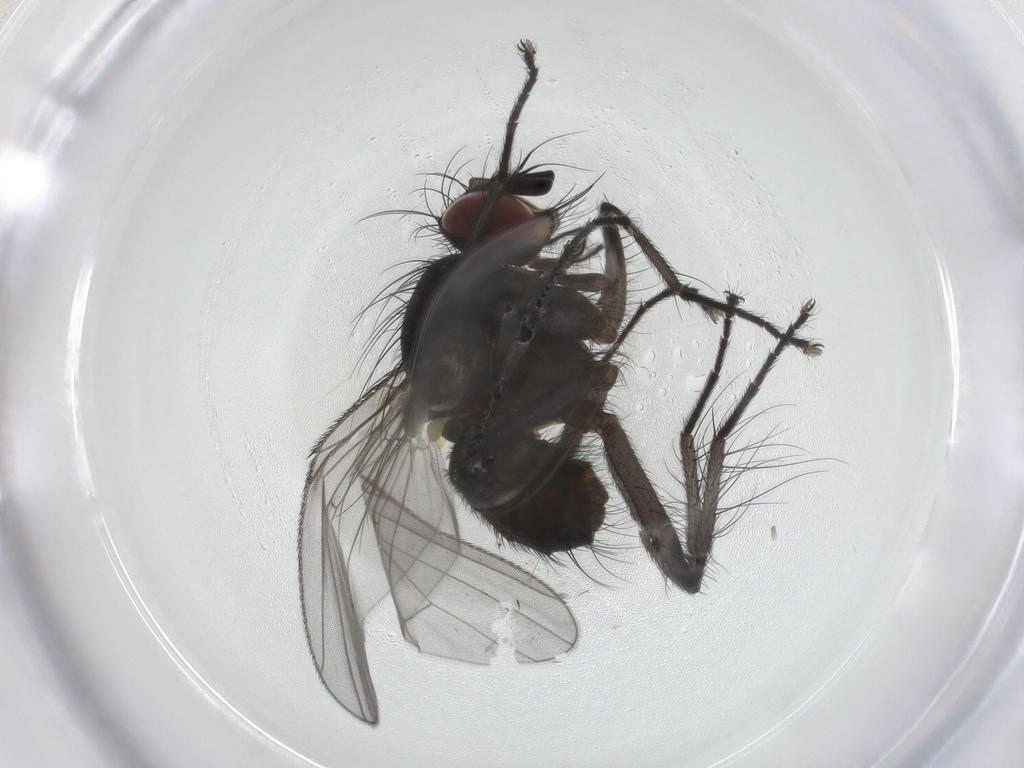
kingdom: Animalia
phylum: Arthropoda
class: Insecta
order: Diptera
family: Muscidae
